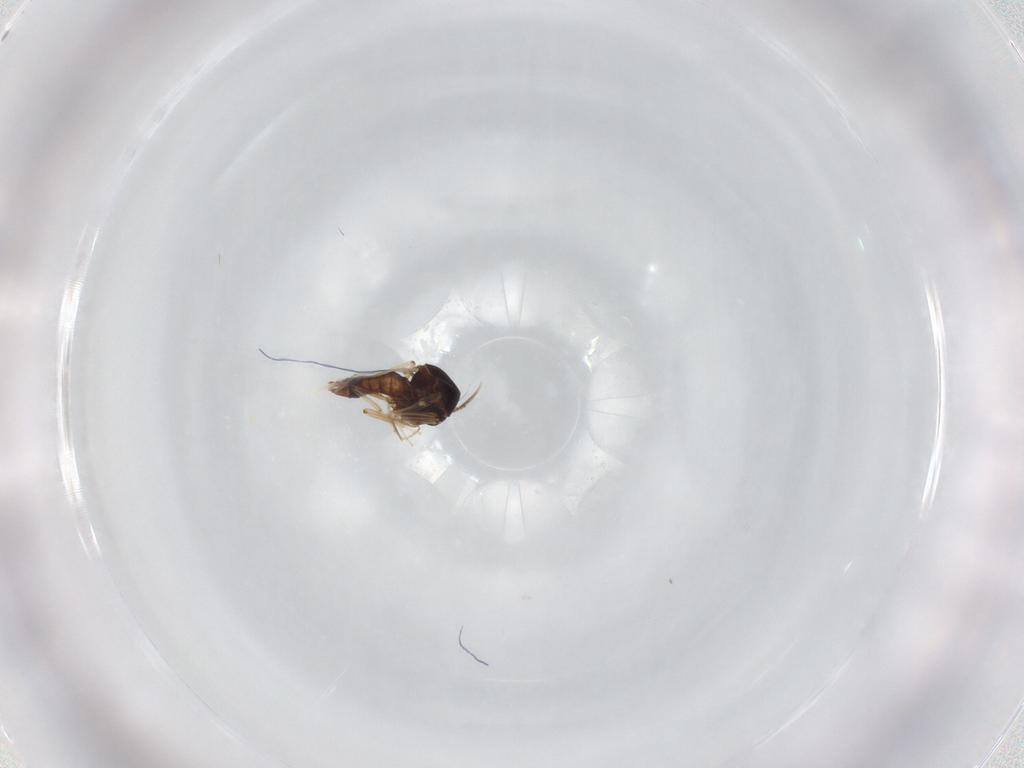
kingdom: Animalia
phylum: Arthropoda
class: Insecta
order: Diptera
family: Ceratopogonidae
